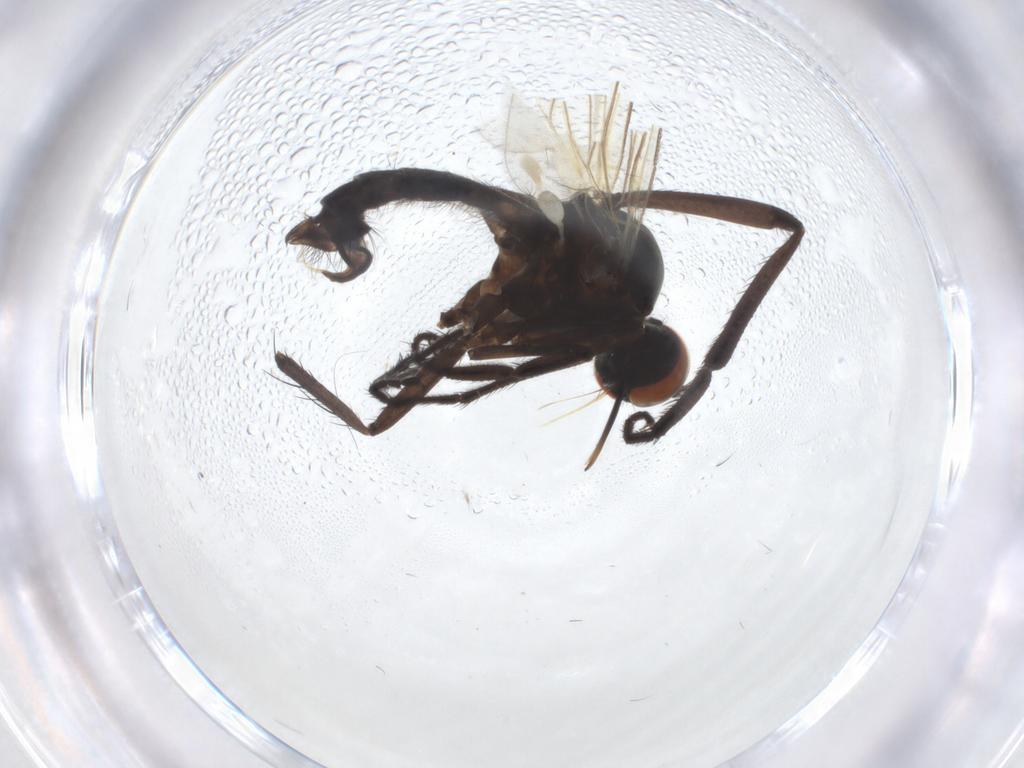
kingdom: Animalia
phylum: Arthropoda
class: Insecta
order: Diptera
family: Empididae
